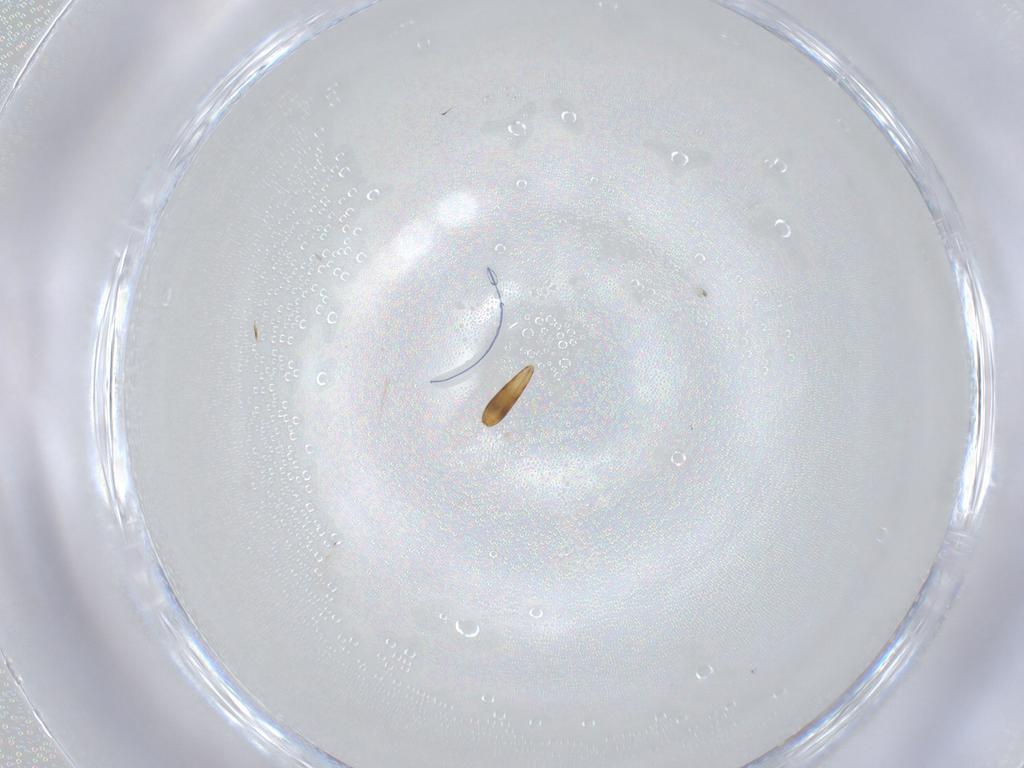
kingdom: Animalia
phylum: Arthropoda
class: Insecta
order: Hymenoptera
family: Scelionidae
